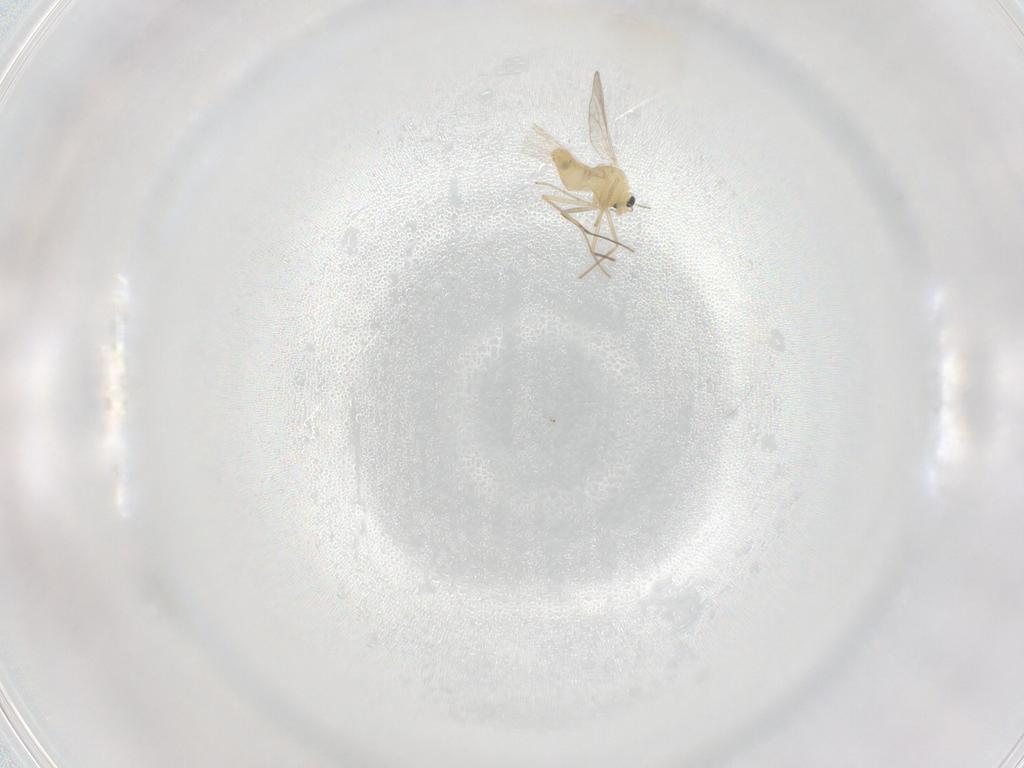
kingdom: Animalia
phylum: Arthropoda
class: Insecta
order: Diptera
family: Chironomidae
